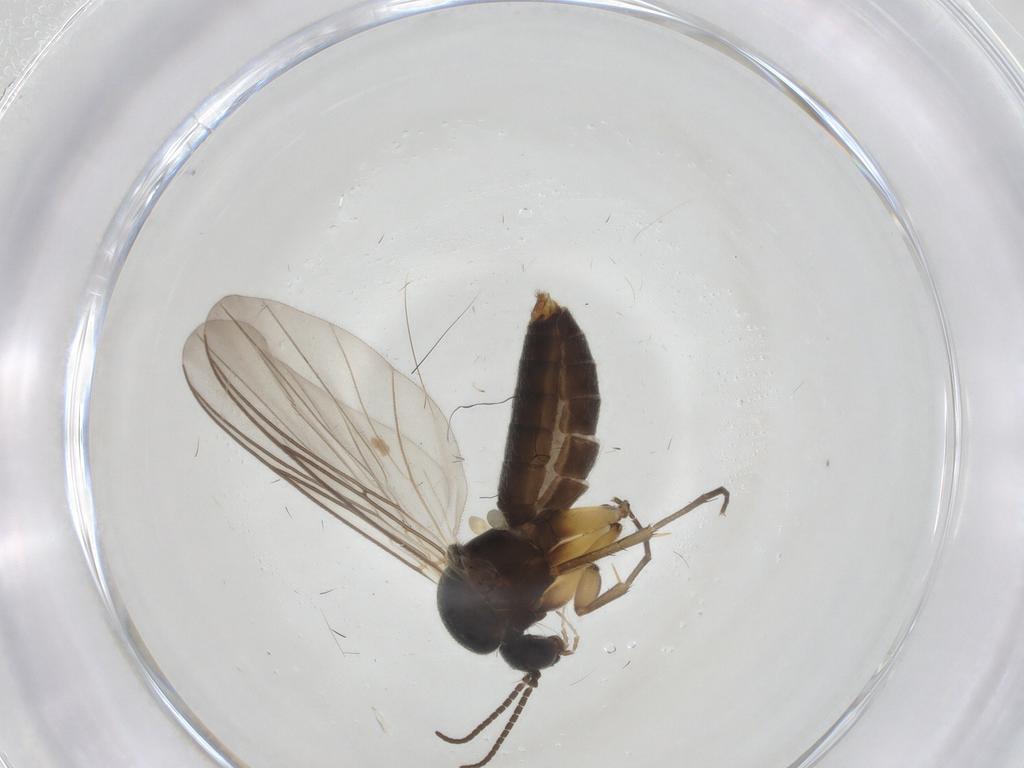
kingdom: Animalia
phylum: Arthropoda
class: Insecta
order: Diptera
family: Mycetophilidae
